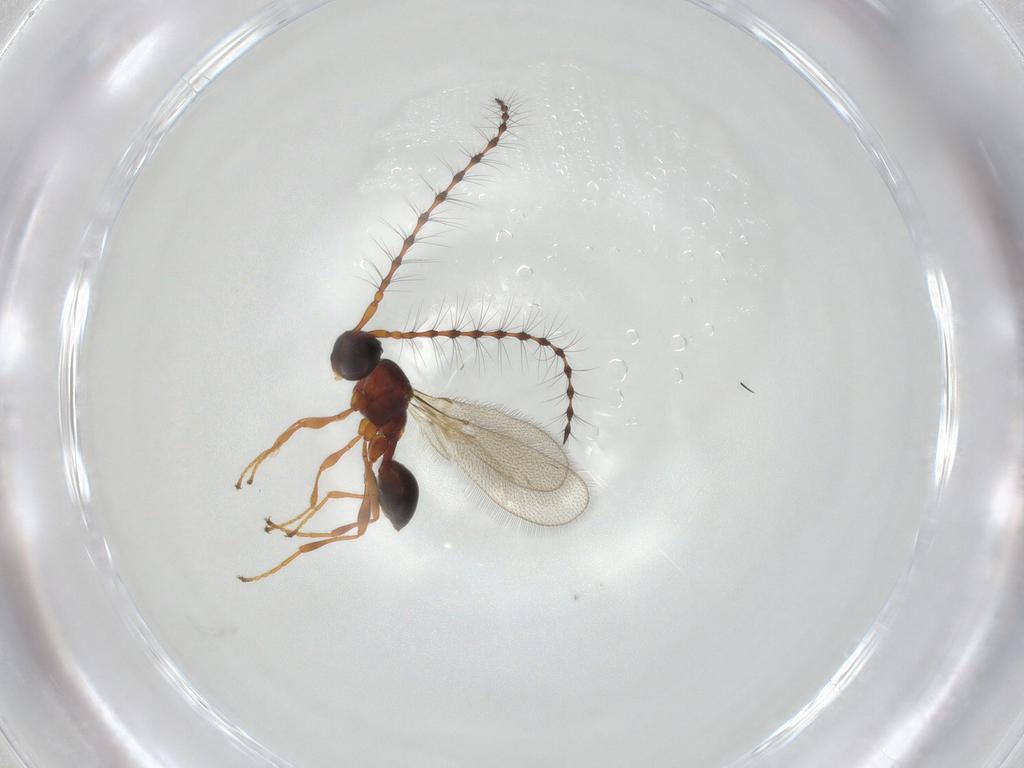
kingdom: Animalia
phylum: Arthropoda
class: Insecta
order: Hymenoptera
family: Diapriidae
